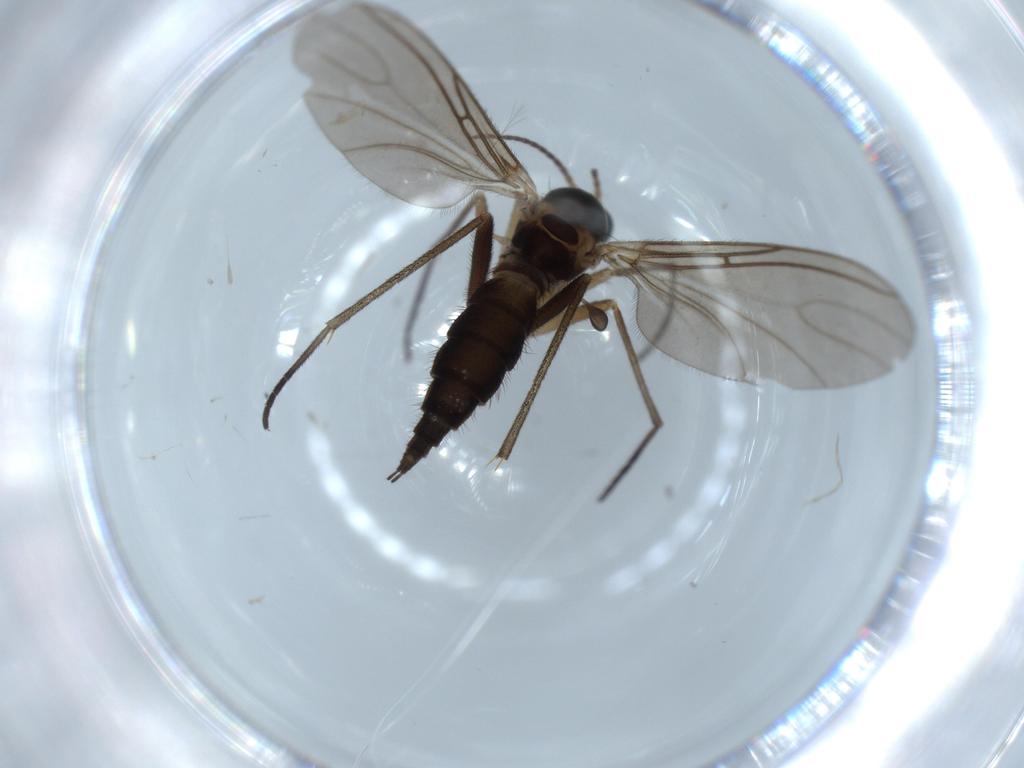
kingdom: Animalia
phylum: Arthropoda
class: Insecta
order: Diptera
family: Sciaridae
